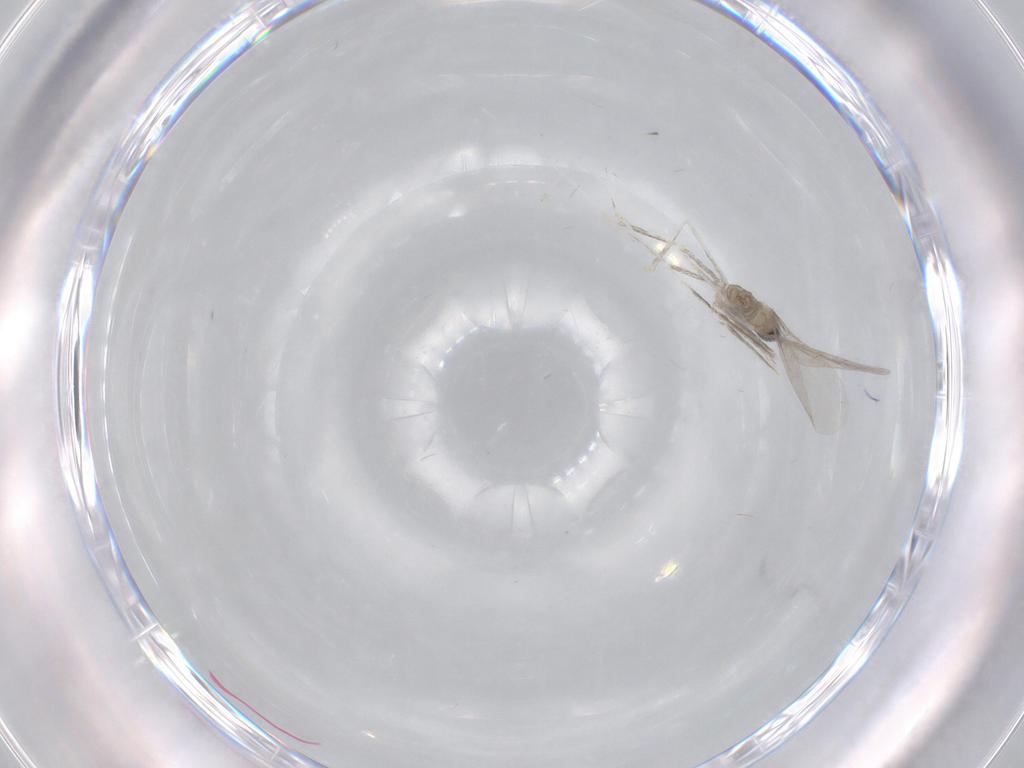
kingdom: Animalia
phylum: Arthropoda
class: Insecta
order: Diptera
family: Cecidomyiidae
